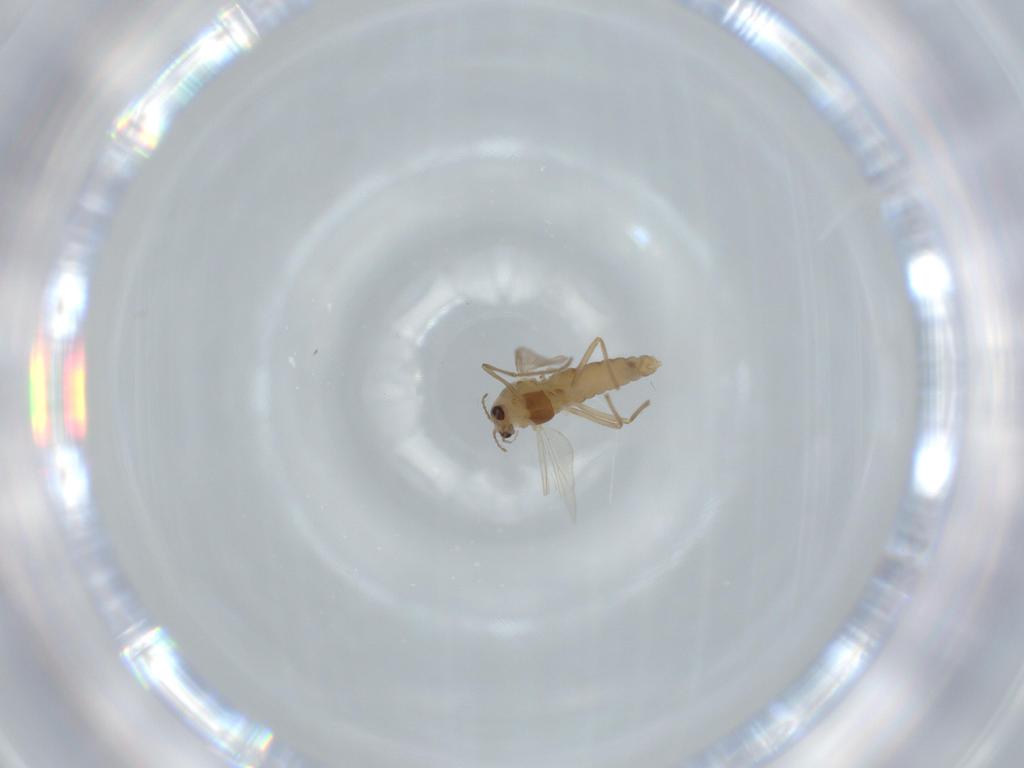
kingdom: Animalia
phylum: Arthropoda
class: Insecta
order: Diptera
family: Chironomidae
